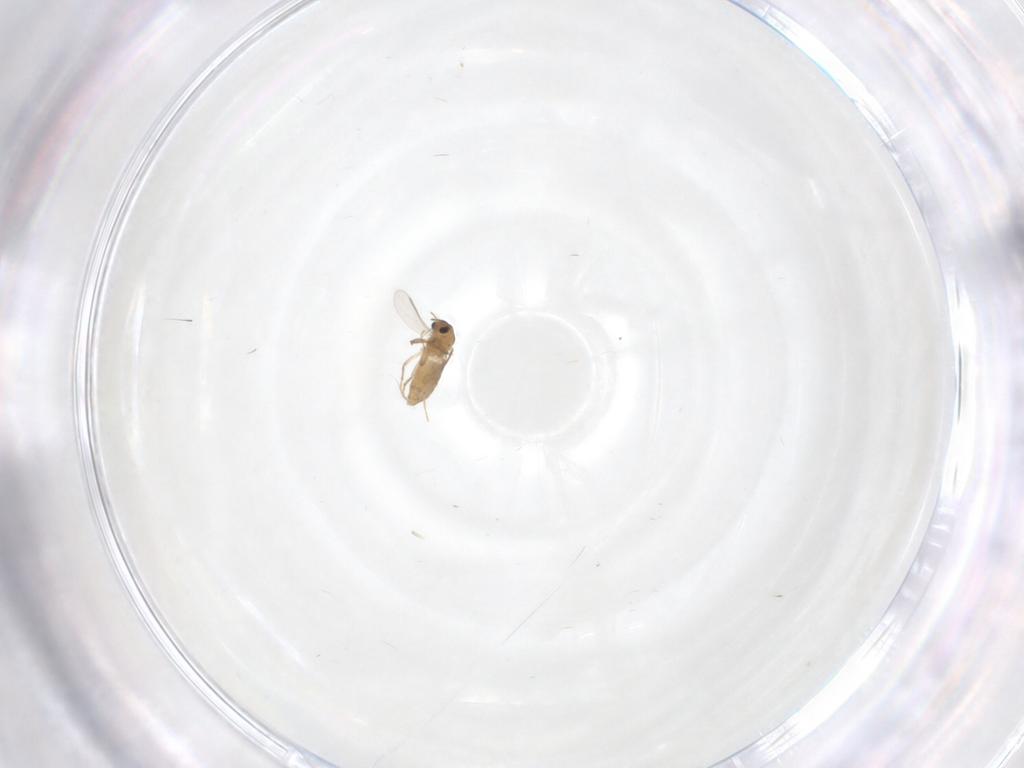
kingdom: Animalia
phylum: Arthropoda
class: Insecta
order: Diptera
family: Chironomidae
